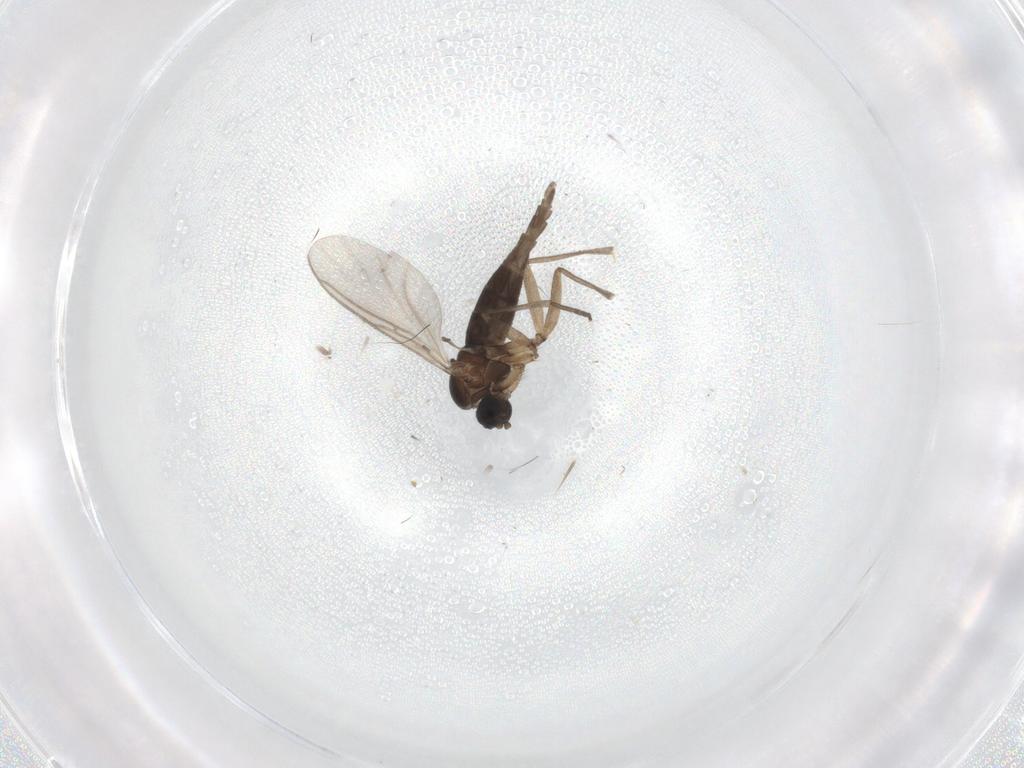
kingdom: Animalia
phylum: Arthropoda
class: Insecta
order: Diptera
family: Sciaridae
